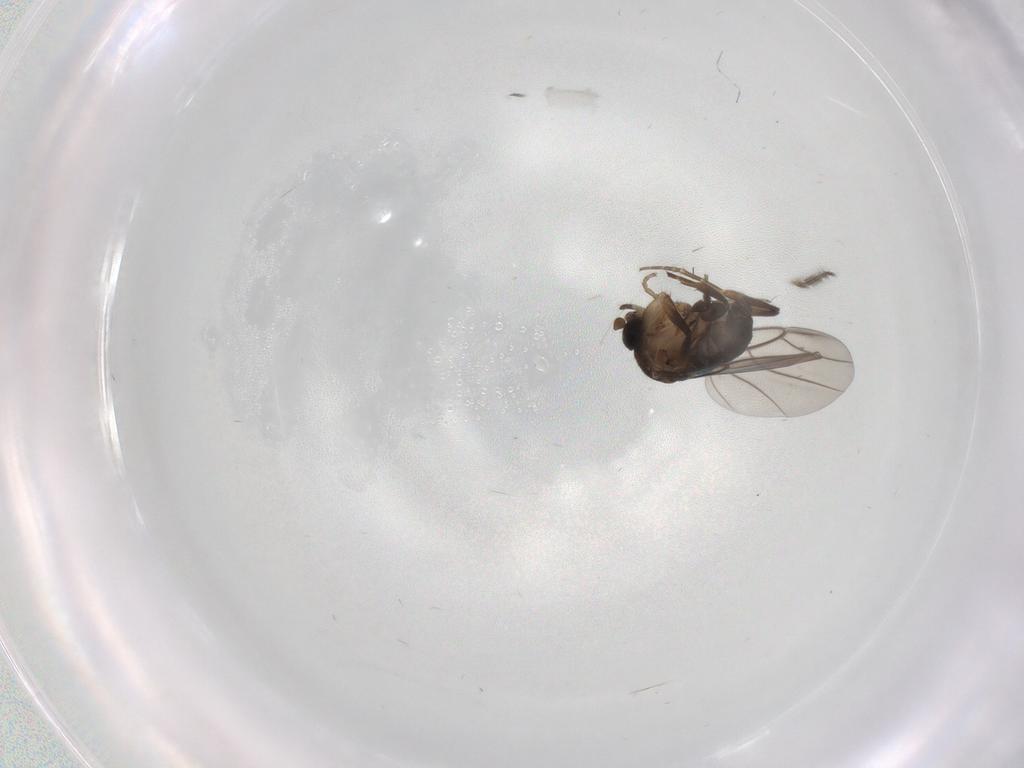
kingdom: Animalia
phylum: Arthropoda
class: Insecta
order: Diptera
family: Phoridae
